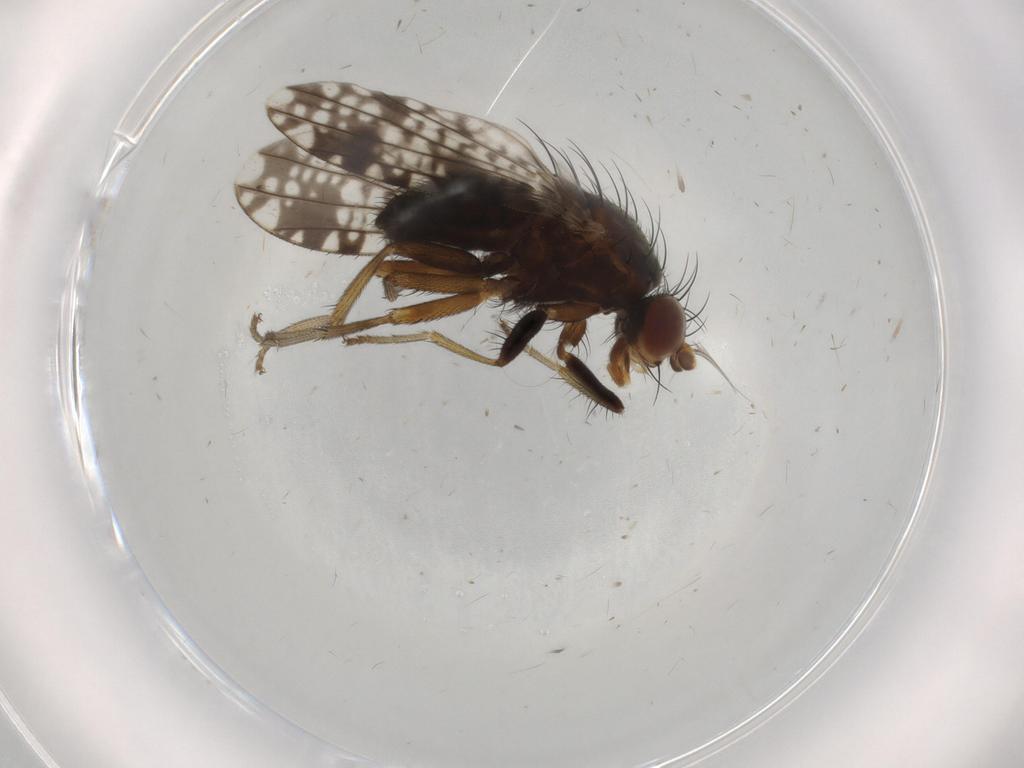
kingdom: Animalia
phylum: Arthropoda
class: Insecta
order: Diptera
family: Tephritidae
